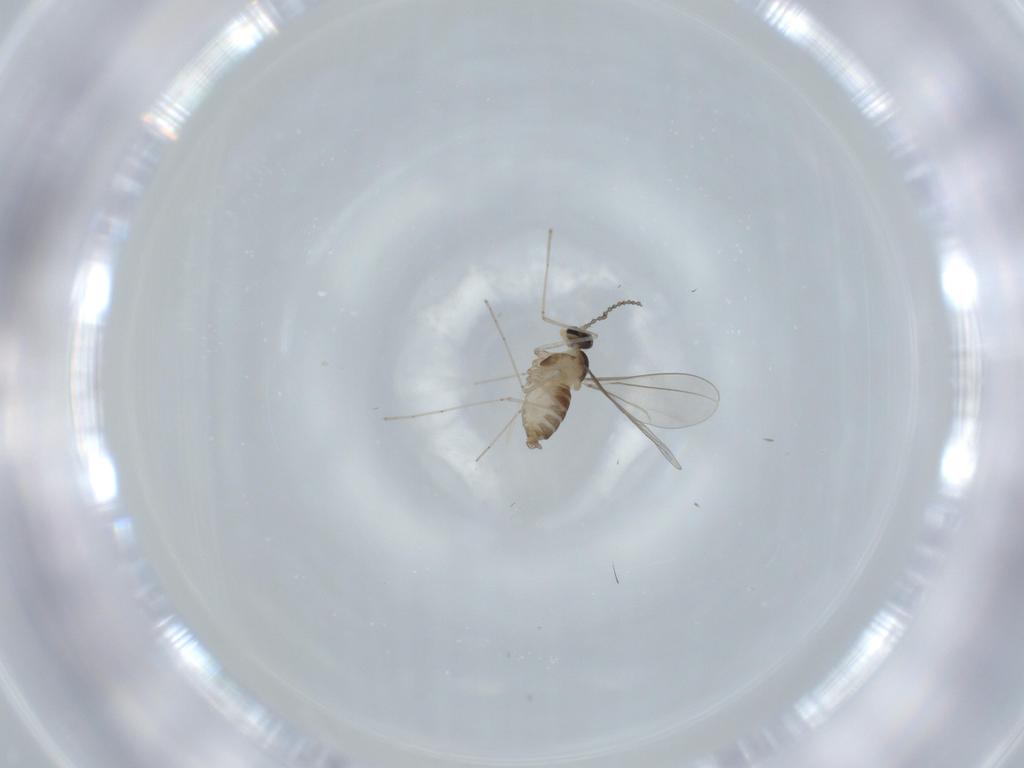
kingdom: Animalia
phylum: Arthropoda
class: Insecta
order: Diptera
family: Cecidomyiidae
